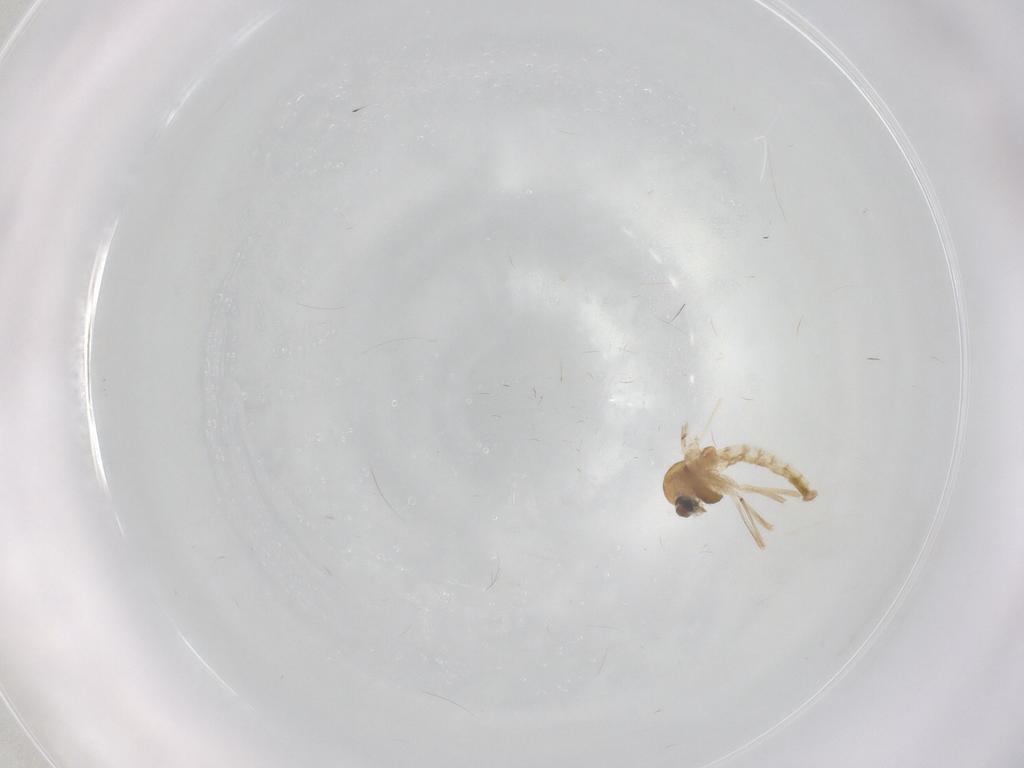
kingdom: Animalia
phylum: Arthropoda
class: Insecta
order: Diptera
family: Chironomidae
